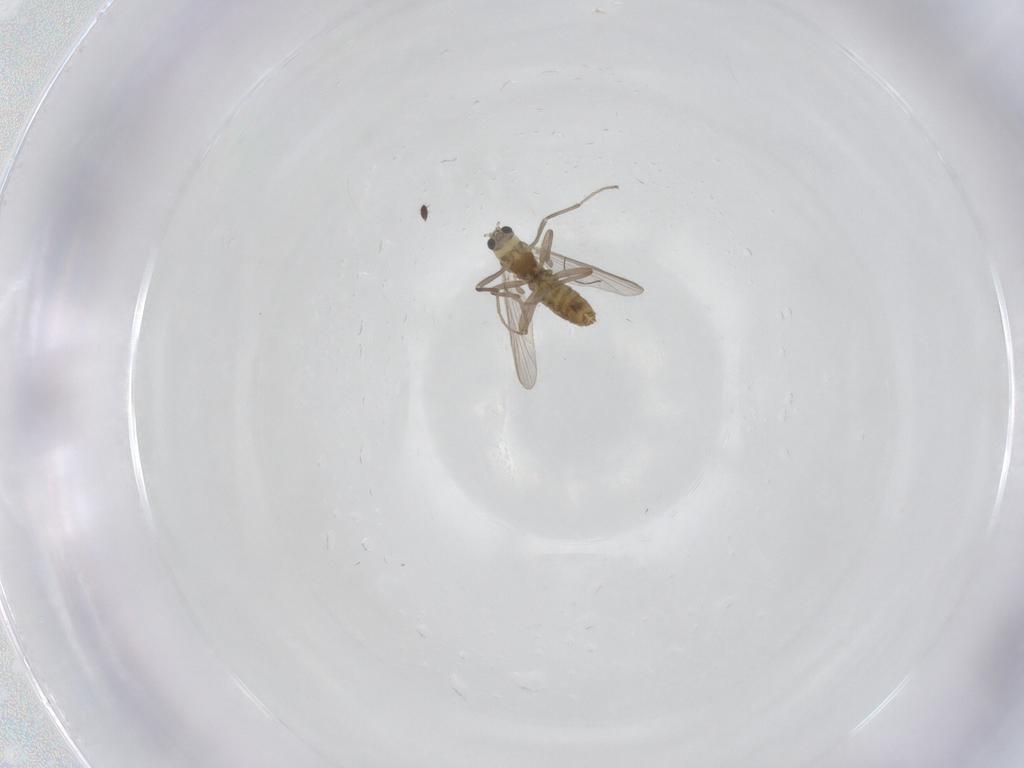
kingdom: Animalia
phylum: Arthropoda
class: Insecta
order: Diptera
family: Chironomidae
